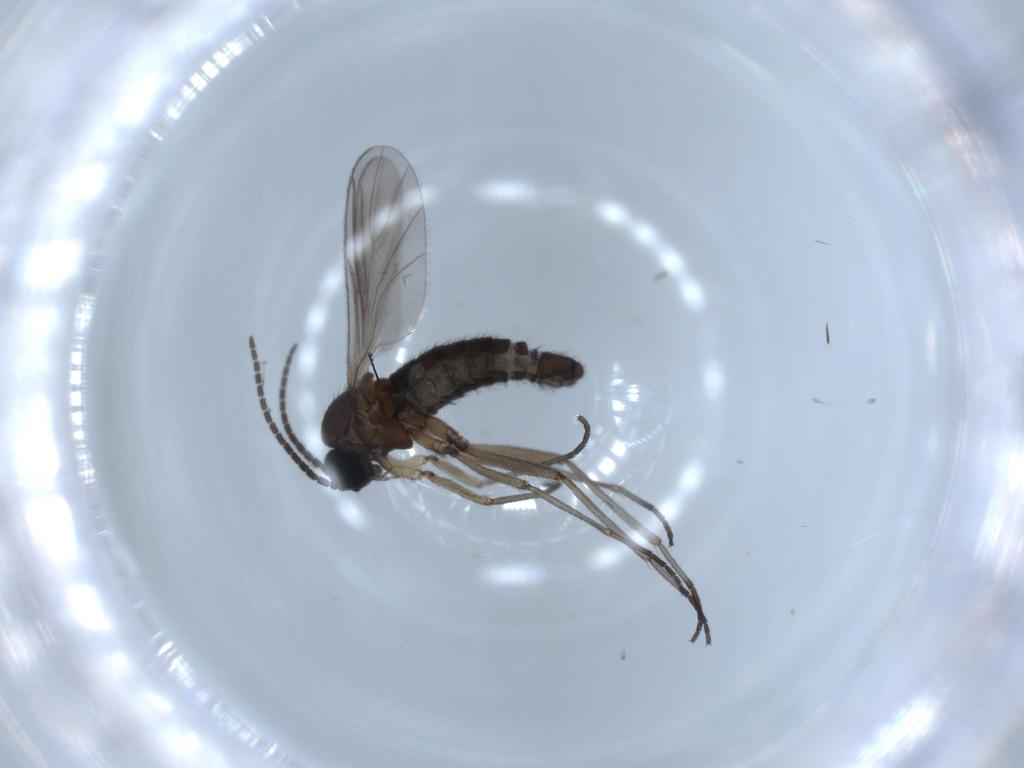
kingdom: Animalia
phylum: Arthropoda
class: Insecta
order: Diptera
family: Sciaridae
